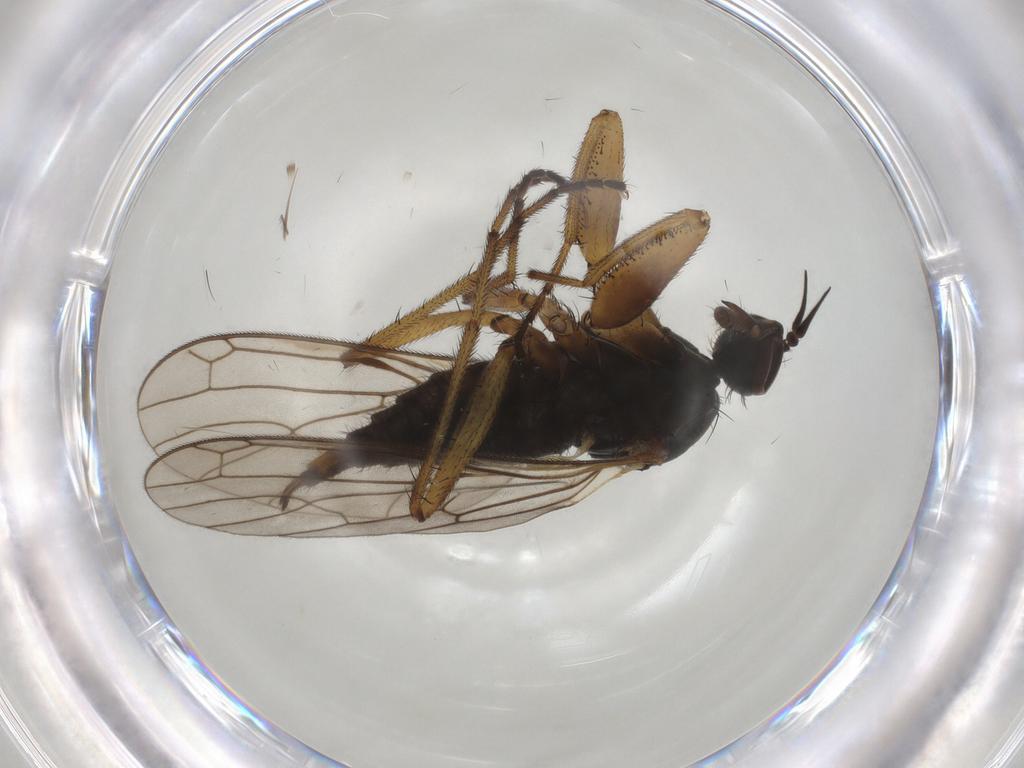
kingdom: Animalia
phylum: Arthropoda
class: Insecta
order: Diptera
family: Empididae
